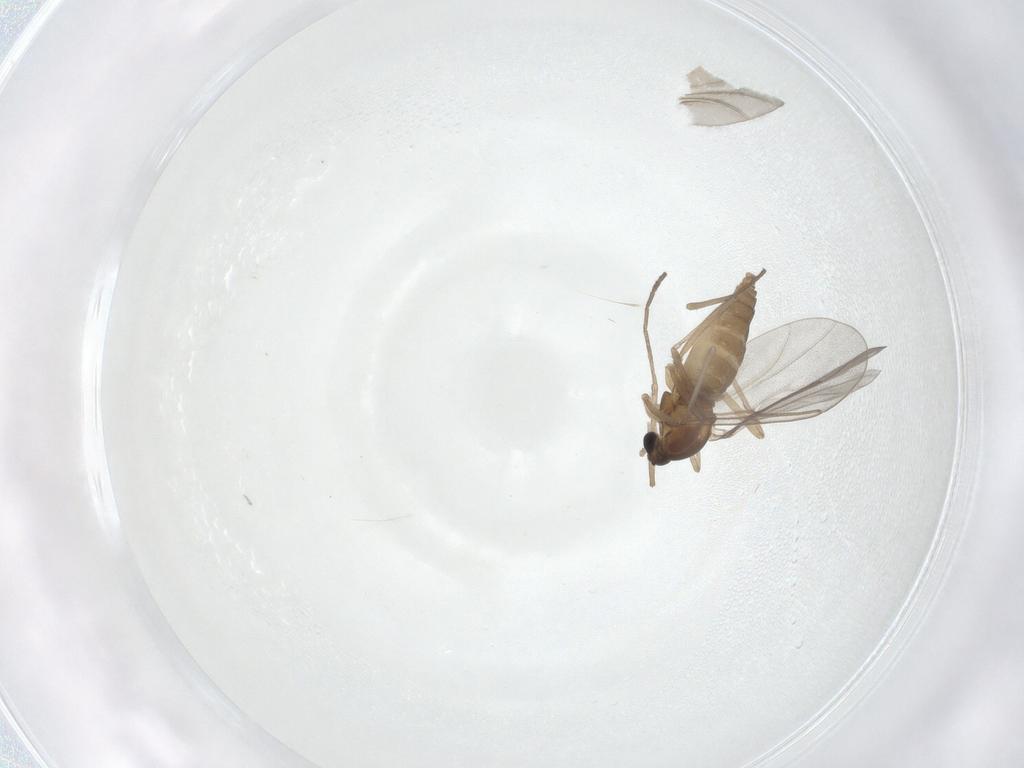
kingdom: Animalia
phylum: Arthropoda
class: Insecta
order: Diptera
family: Cecidomyiidae
